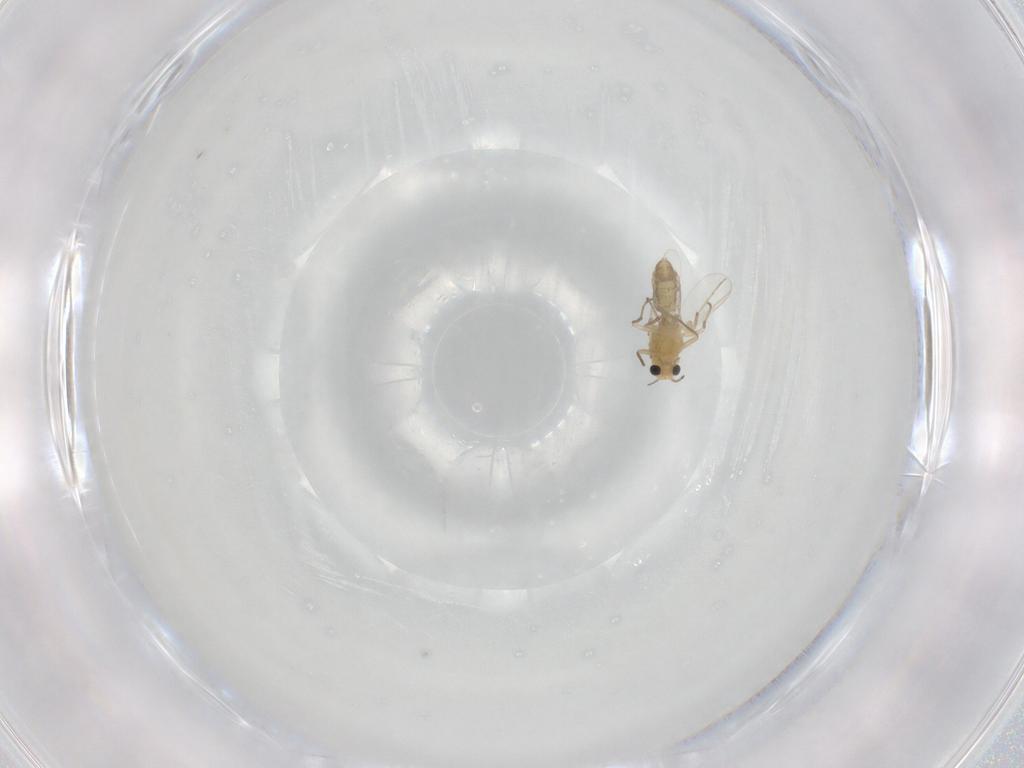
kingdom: Animalia
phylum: Arthropoda
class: Insecta
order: Diptera
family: Chironomidae
